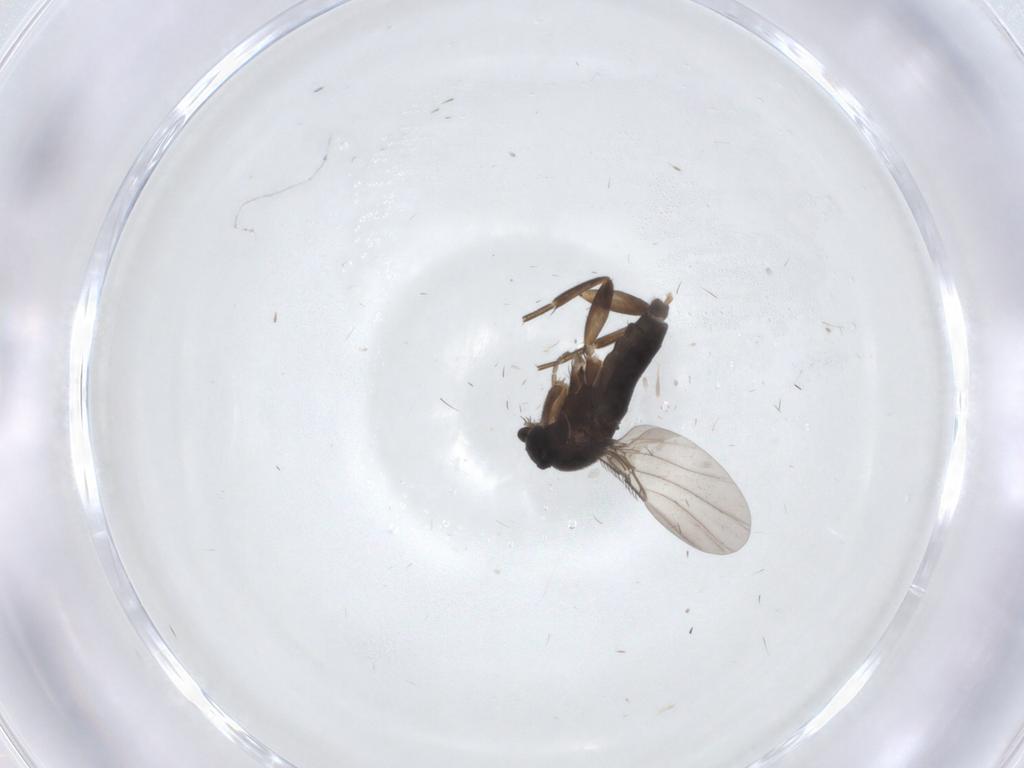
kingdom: Animalia
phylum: Arthropoda
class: Insecta
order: Diptera
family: Phoridae
